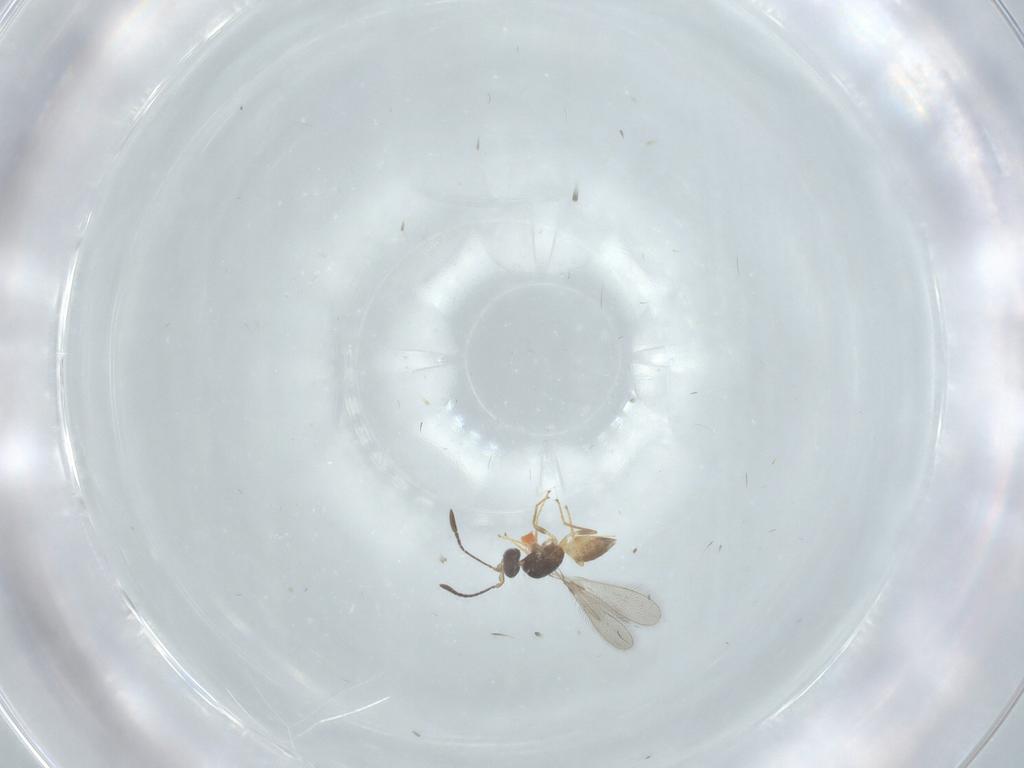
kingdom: Animalia
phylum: Arthropoda
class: Insecta
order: Hymenoptera
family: Mymaridae
